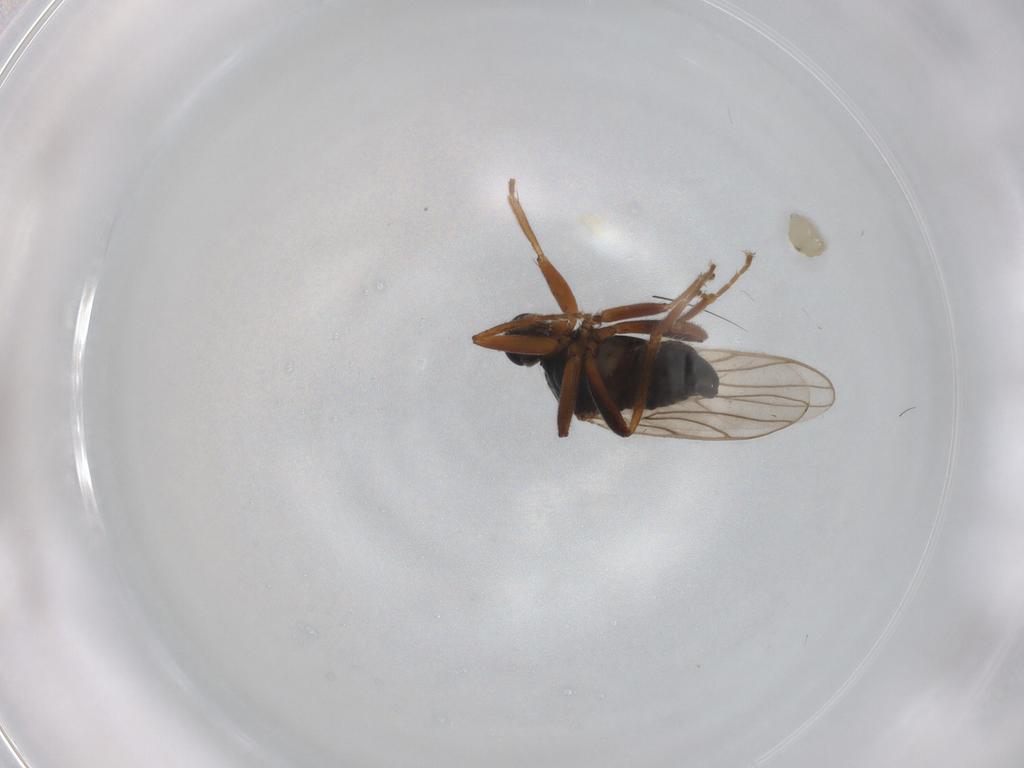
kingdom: Animalia
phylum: Arthropoda
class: Insecta
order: Diptera
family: Hybotidae
